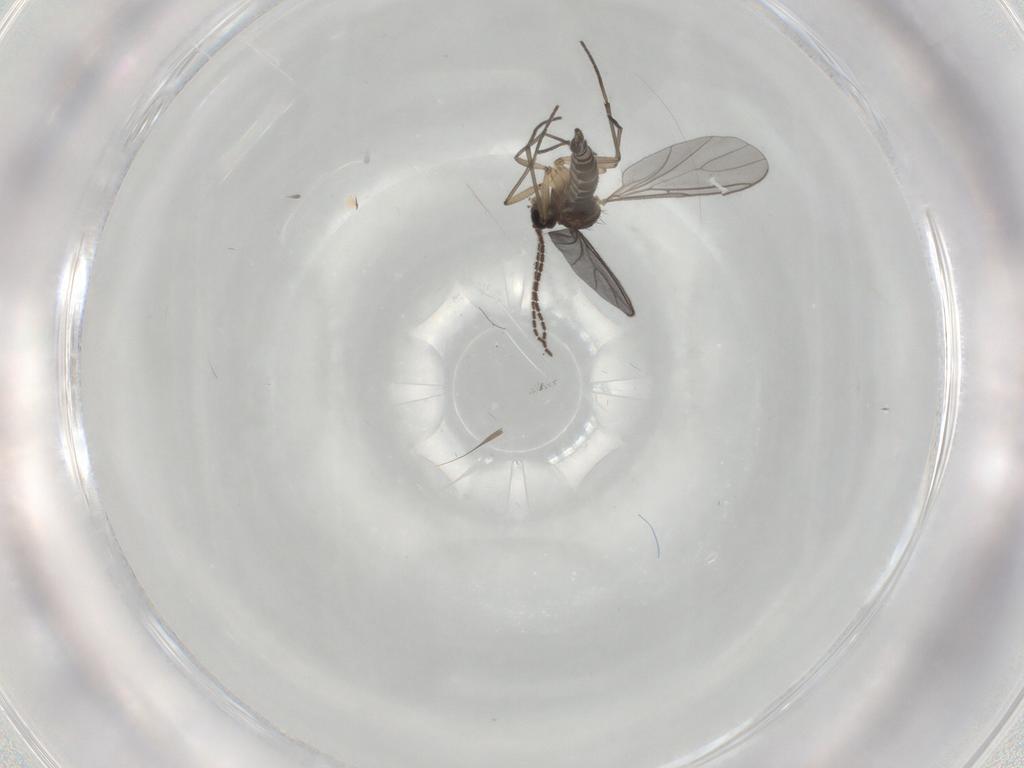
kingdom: Animalia
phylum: Arthropoda
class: Insecta
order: Diptera
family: Sciaridae
